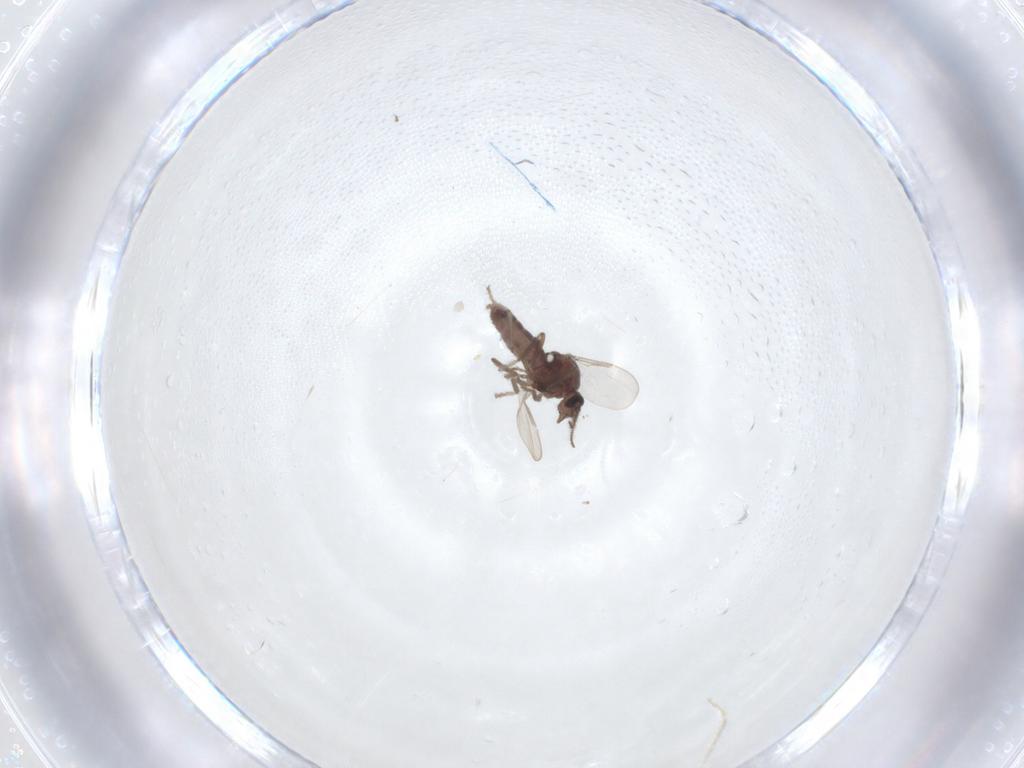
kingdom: Animalia
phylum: Arthropoda
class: Insecta
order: Diptera
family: Ceratopogonidae
